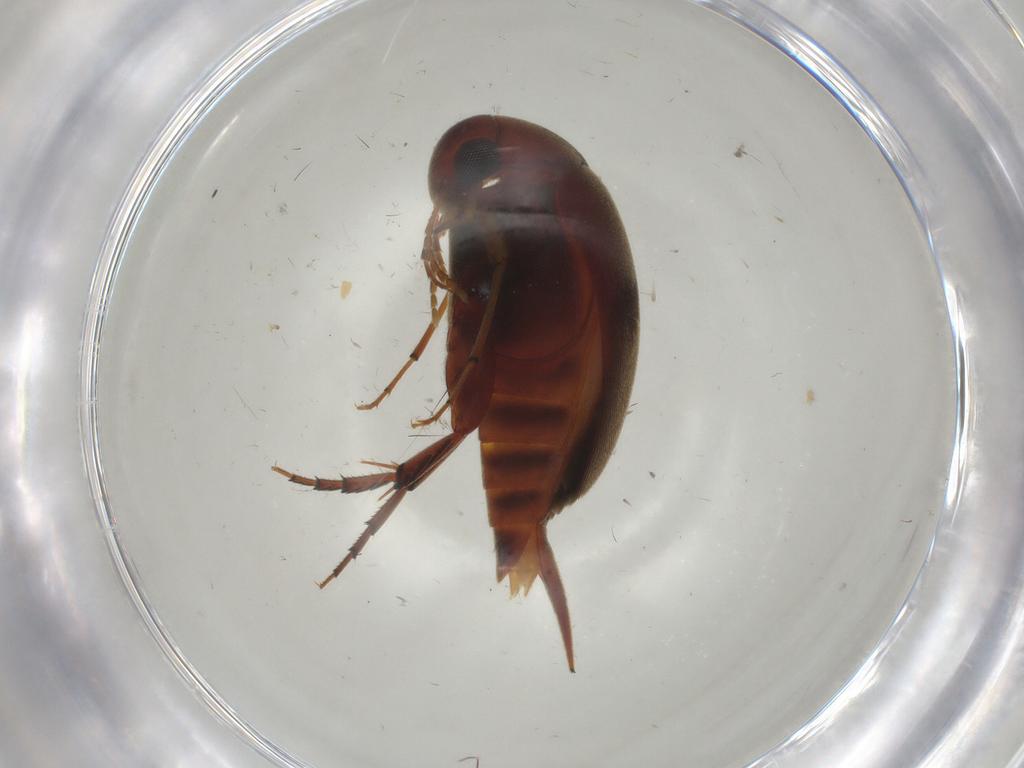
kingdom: Animalia
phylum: Arthropoda
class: Insecta
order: Coleoptera
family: Mordellidae
